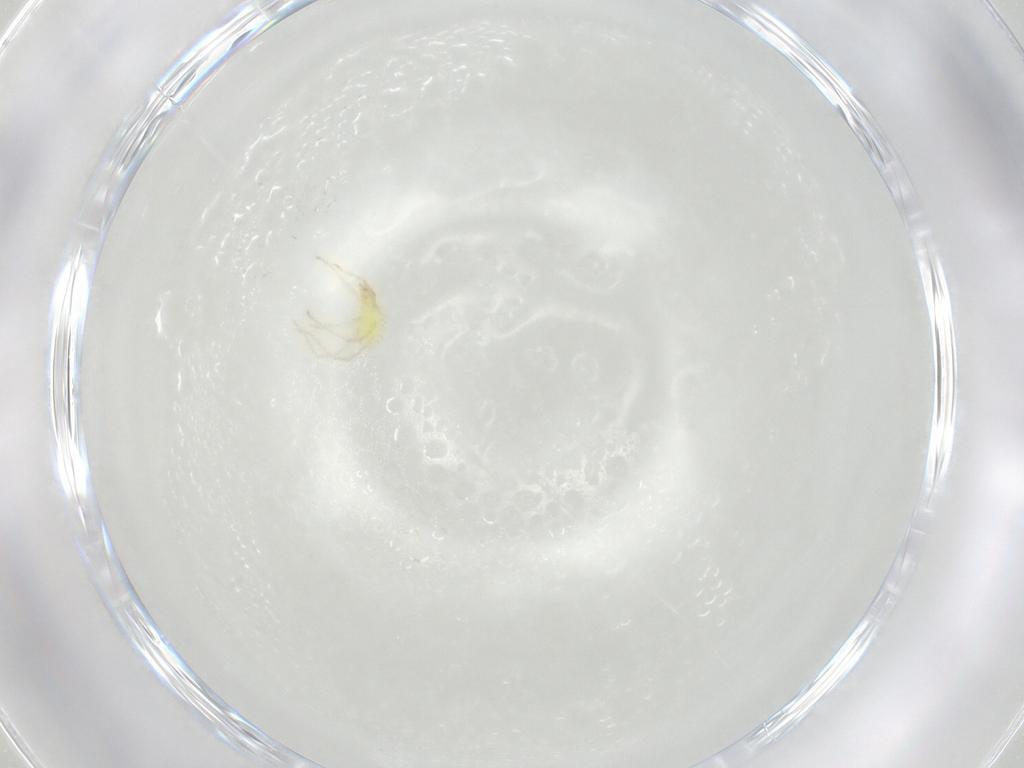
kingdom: Animalia
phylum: Arthropoda
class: Arachnida
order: Trombidiformes
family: Erythraeidae
